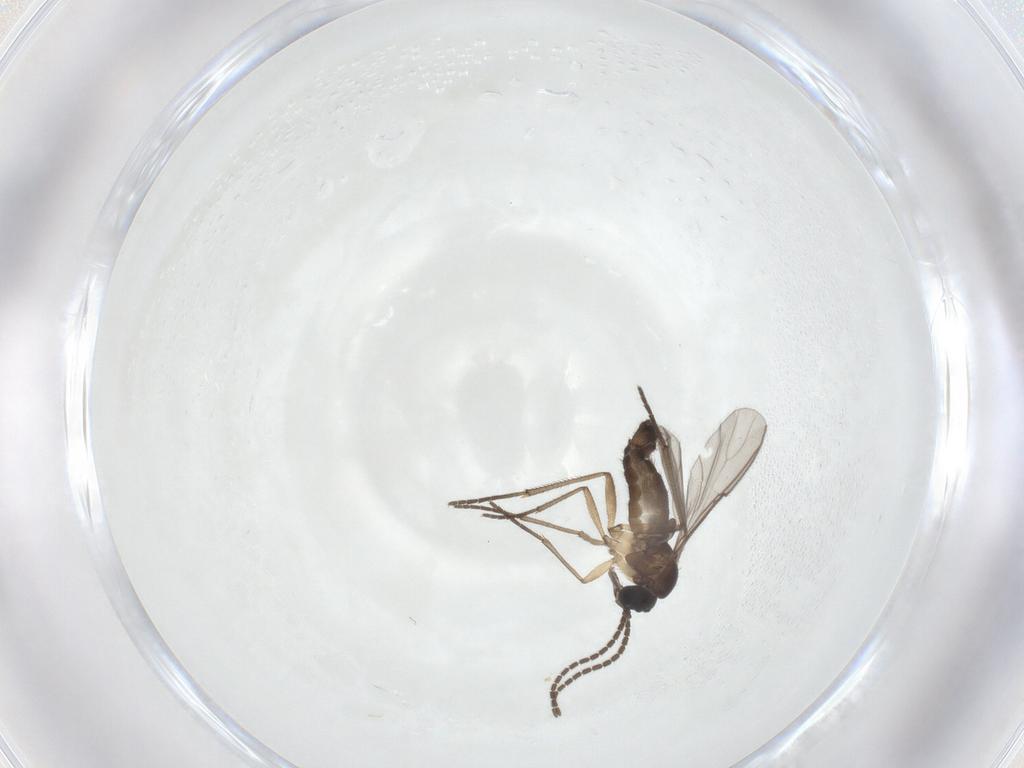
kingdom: Animalia
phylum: Arthropoda
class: Insecta
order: Diptera
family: Sciaridae
